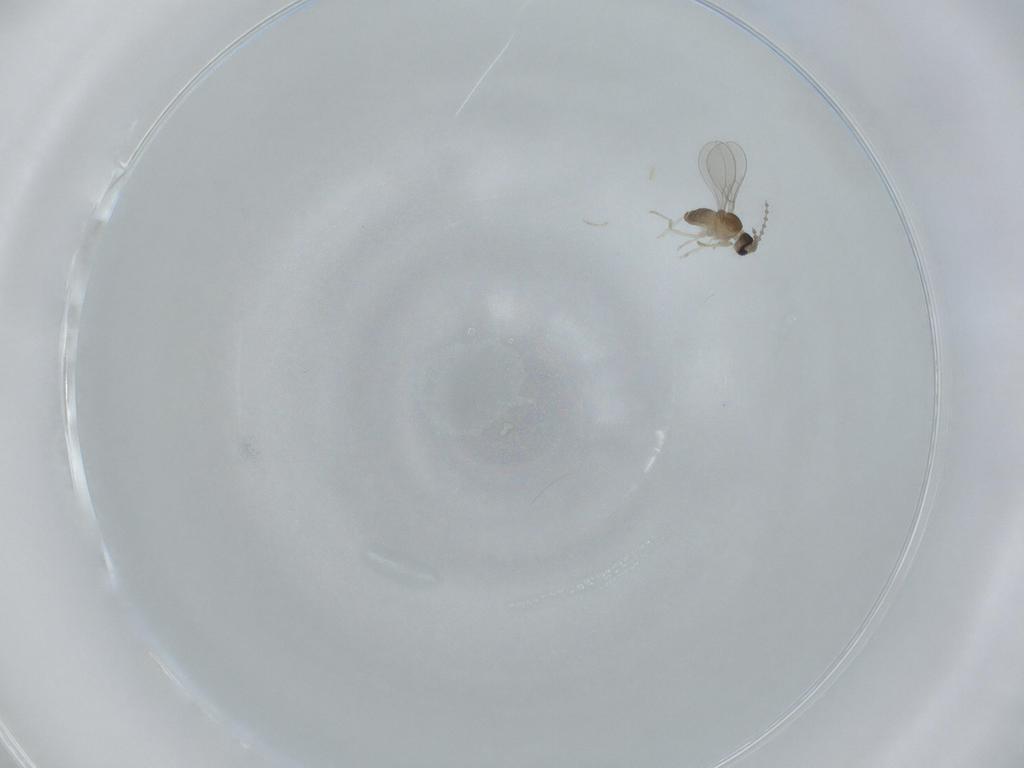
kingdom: Animalia
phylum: Arthropoda
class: Insecta
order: Diptera
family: Cecidomyiidae
